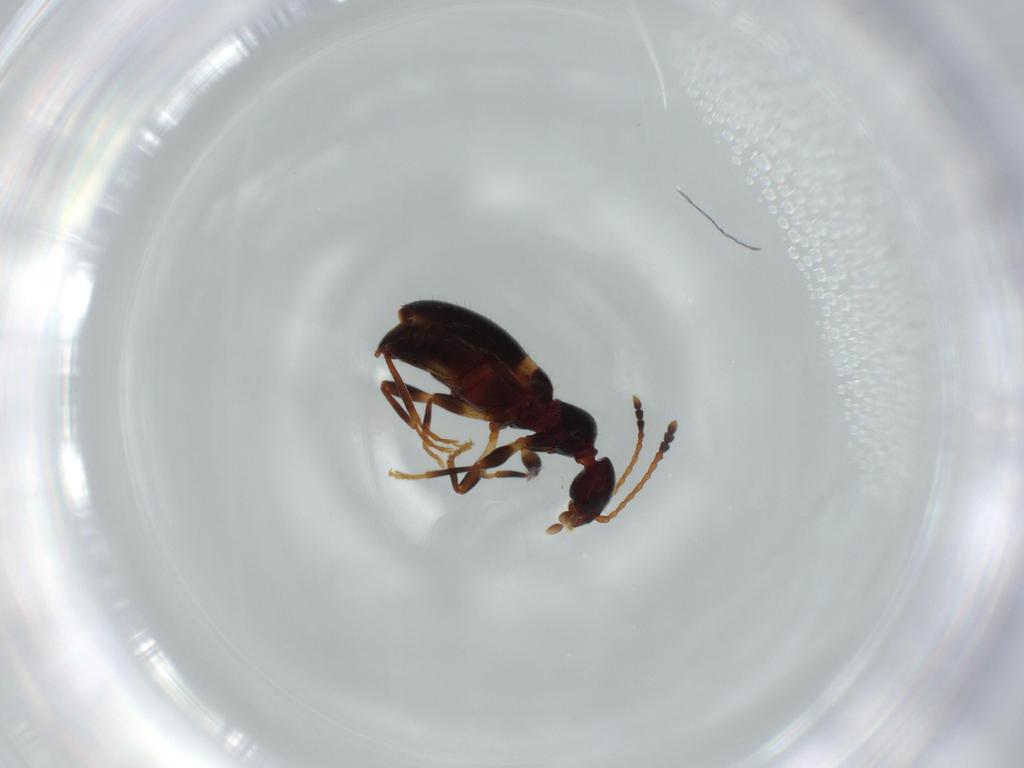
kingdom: Animalia
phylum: Arthropoda
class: Insecta
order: Coleoptera
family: Anthicidae
